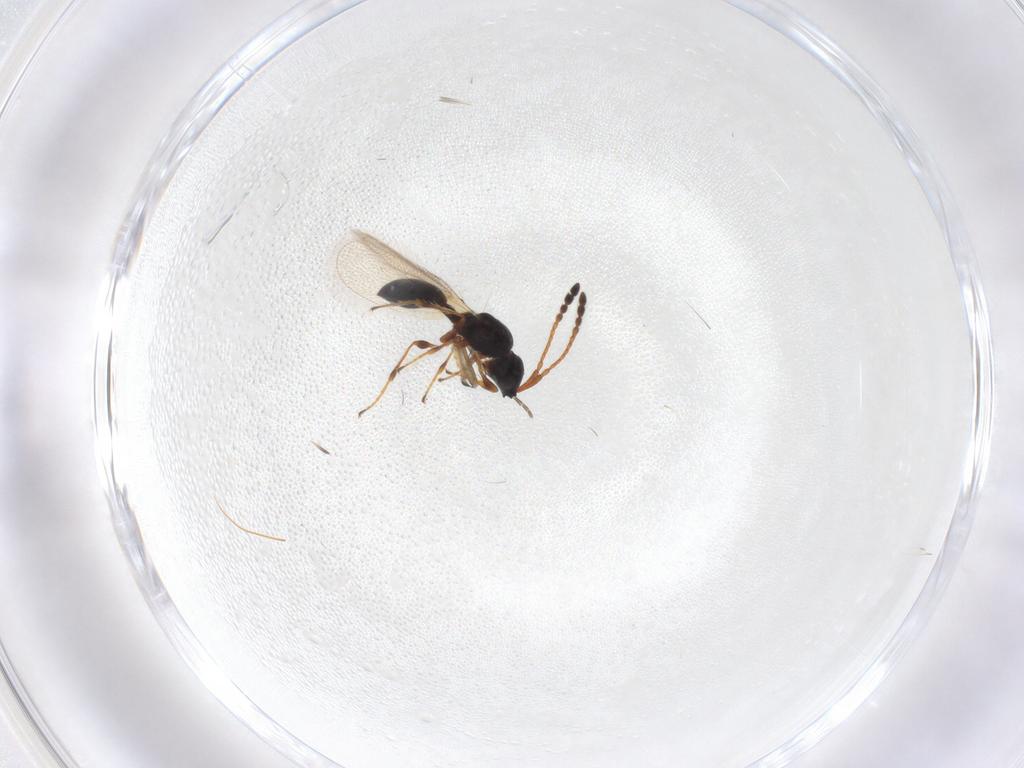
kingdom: Animalia
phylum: Arthropoda
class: Insecta
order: Hymenoptera
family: Diapriidae
